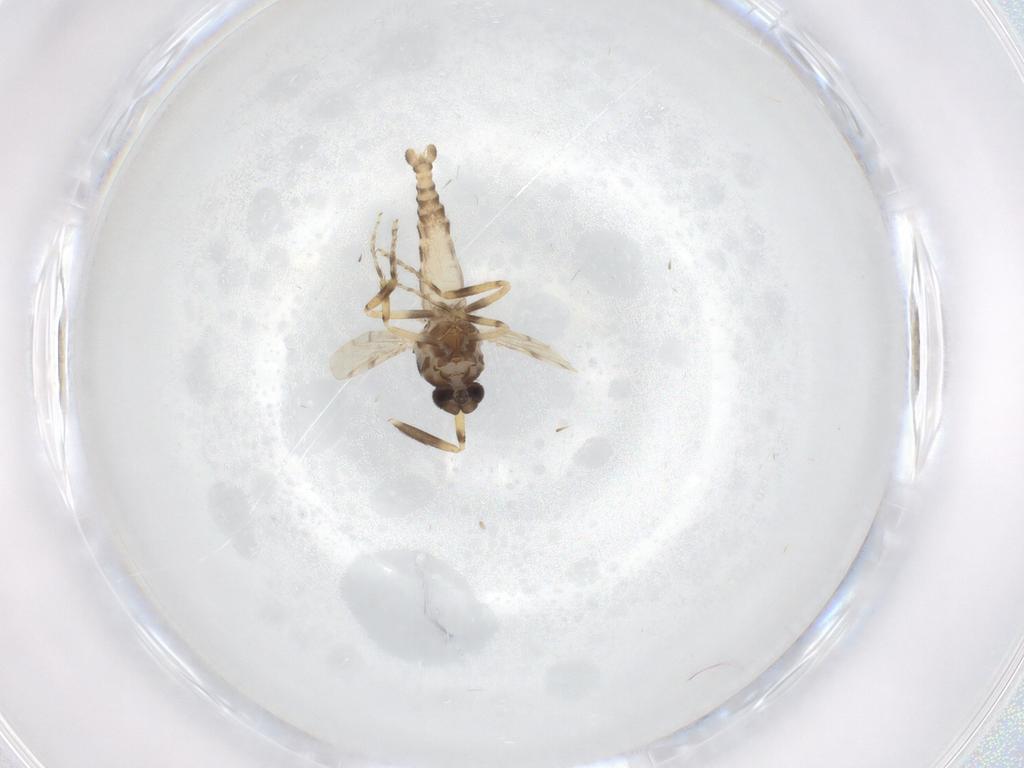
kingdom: Animalia
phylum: Arthropoda
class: Insecta
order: Diptera
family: Ceratopogonidae
